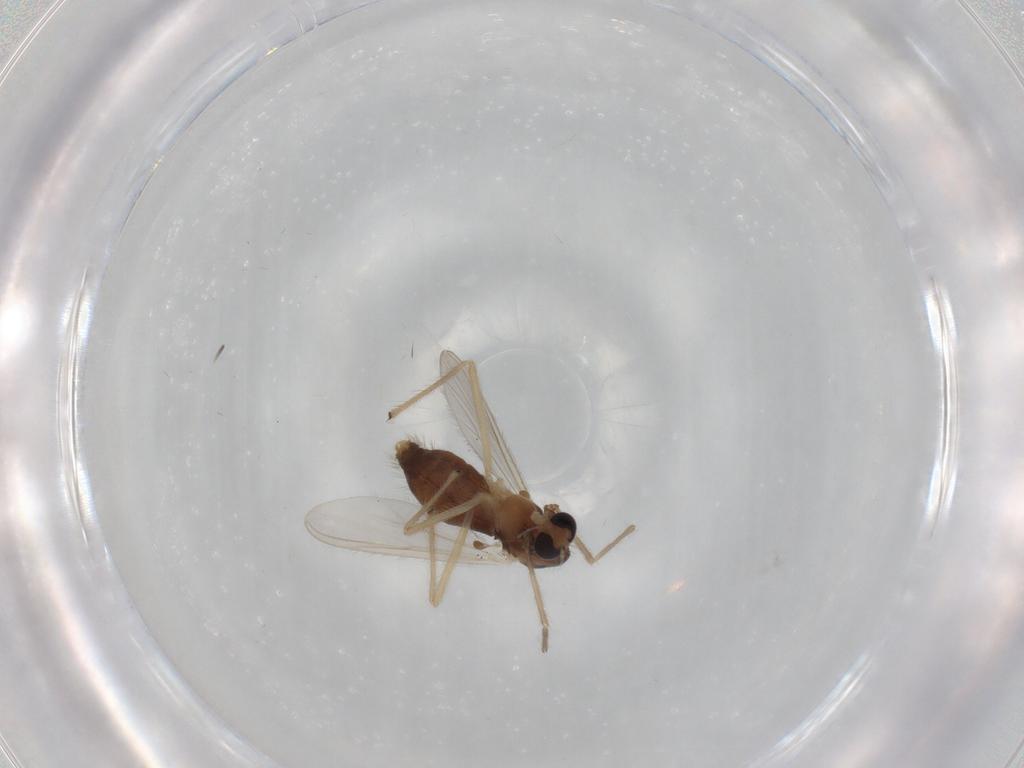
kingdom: Animalia
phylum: Arthropoda
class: Insecta
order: Diptera
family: Chironomidae
